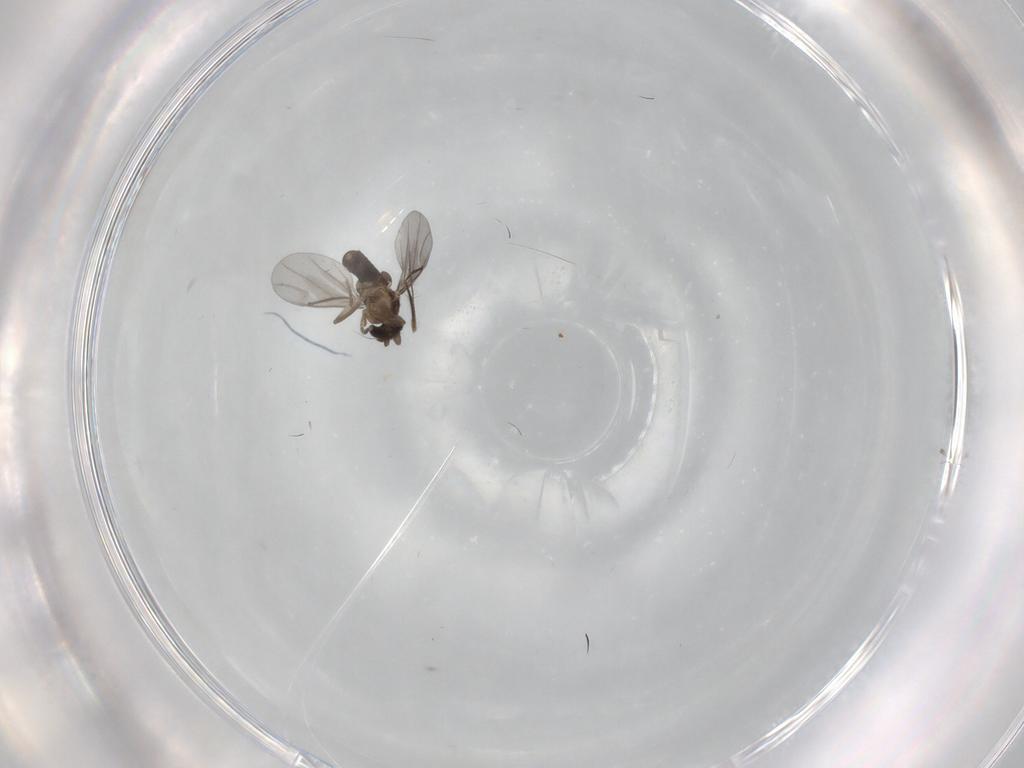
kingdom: Animalia
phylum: Arthropoda
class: Insecta
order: Diptera
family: Sciaridae
